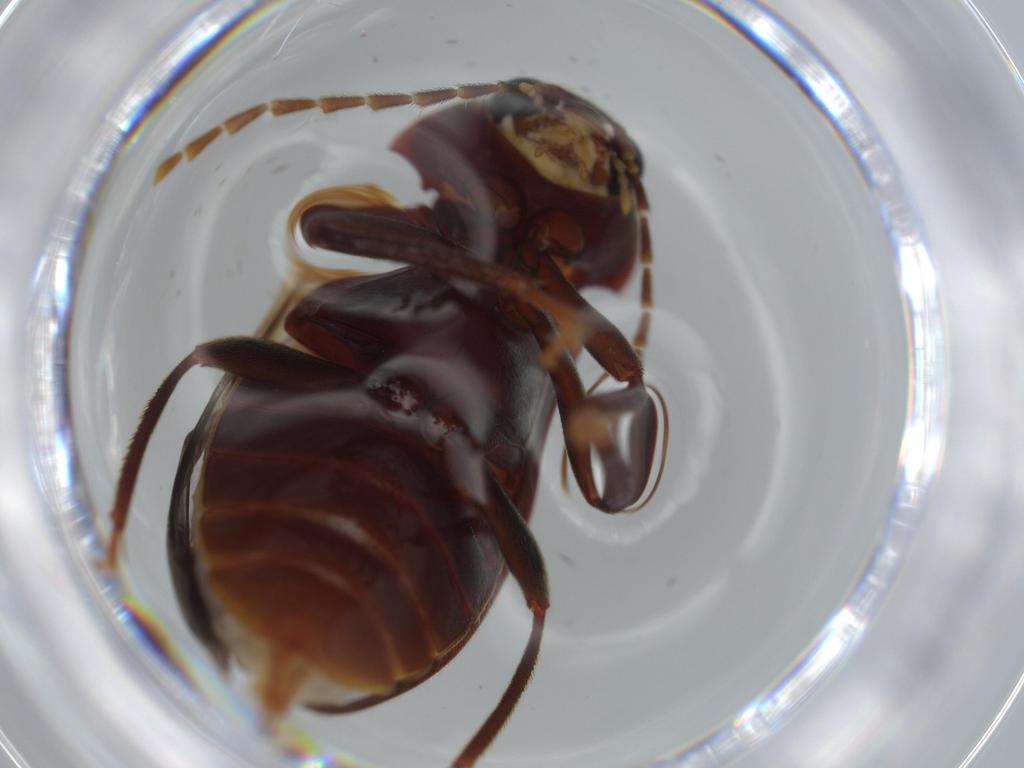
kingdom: Animalia
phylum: Arthropoda
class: Insecta
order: Coleoptera
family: Ptilodactylidae
